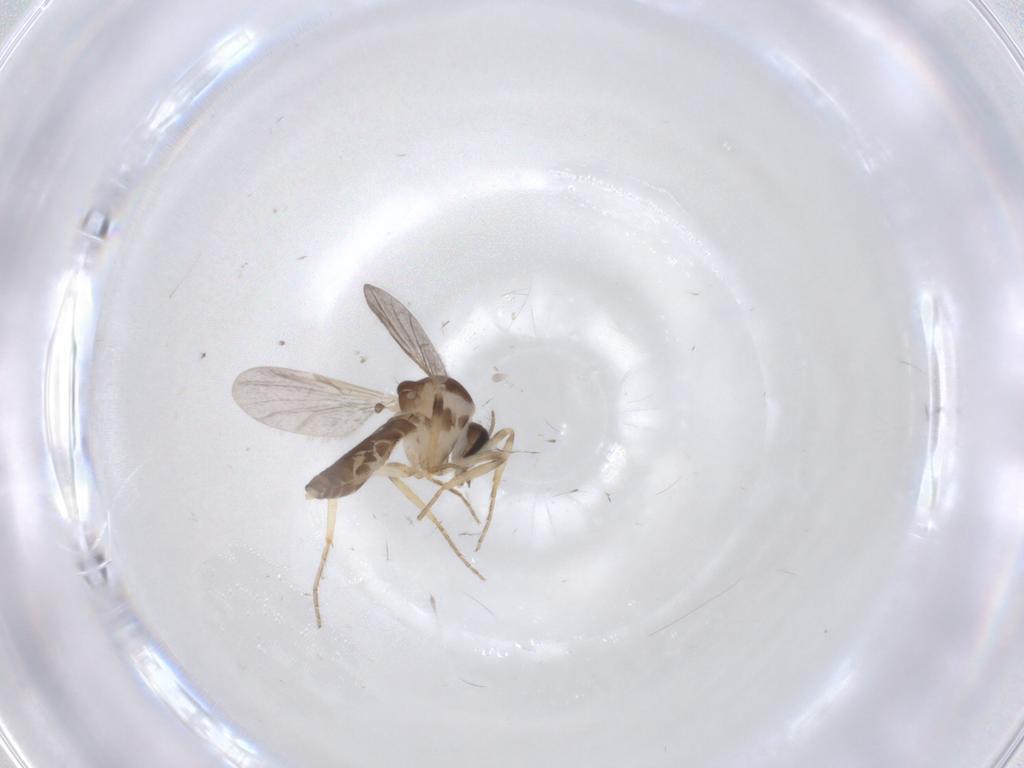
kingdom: Animalia
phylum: Arthropoda
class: Insecta
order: Diptera
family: Ceratopogonidae
